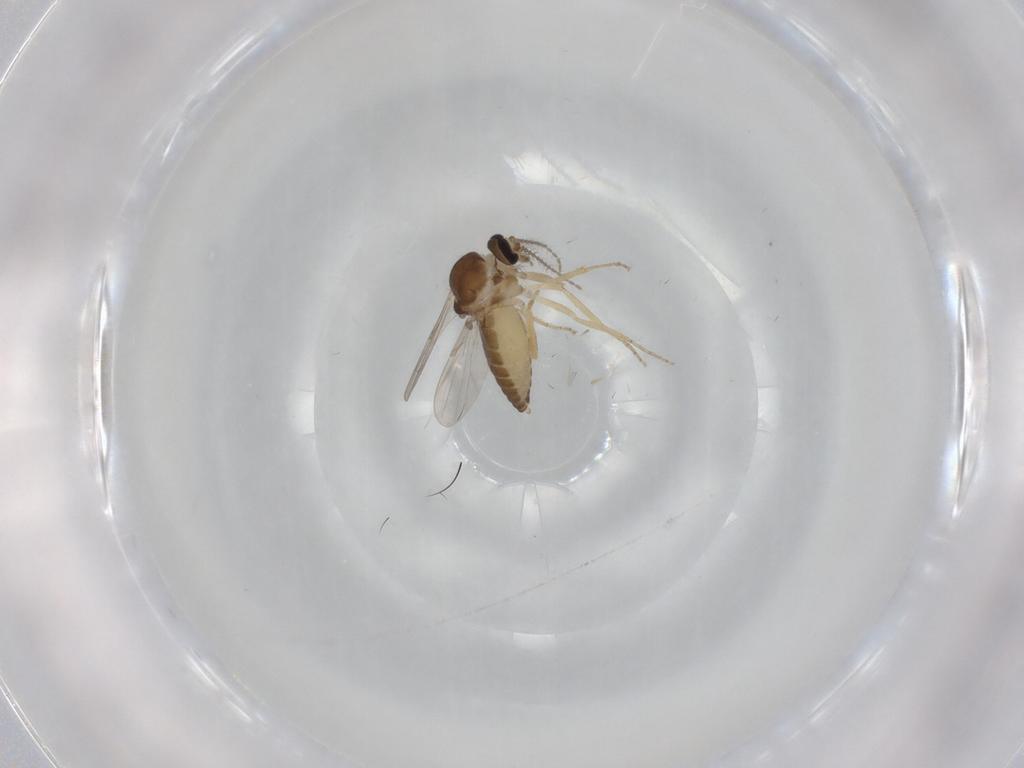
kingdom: Animalia
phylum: Arthropoda
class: Insecta
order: Diptera
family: Ceratopogonidae
